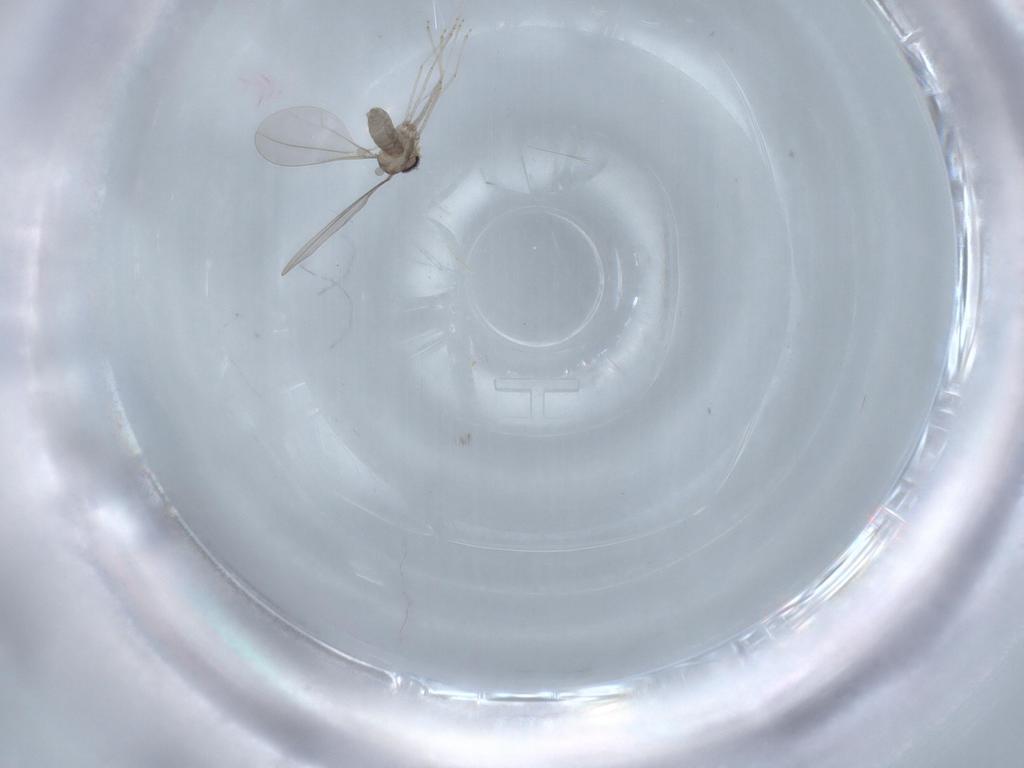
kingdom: Animalia
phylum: Arthropoda
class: Insecta
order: Diptera
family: Cecidomyiidae
